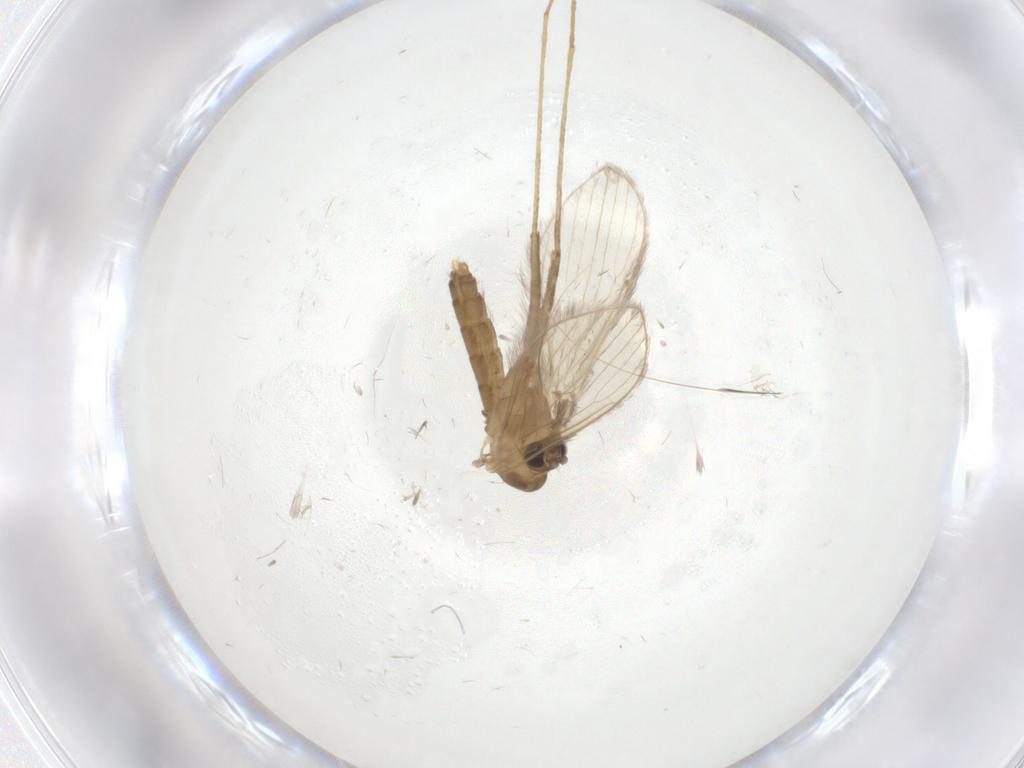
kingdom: Animalia
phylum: Arthropoda
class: Insecta
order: Diptera
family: Psychodidae
